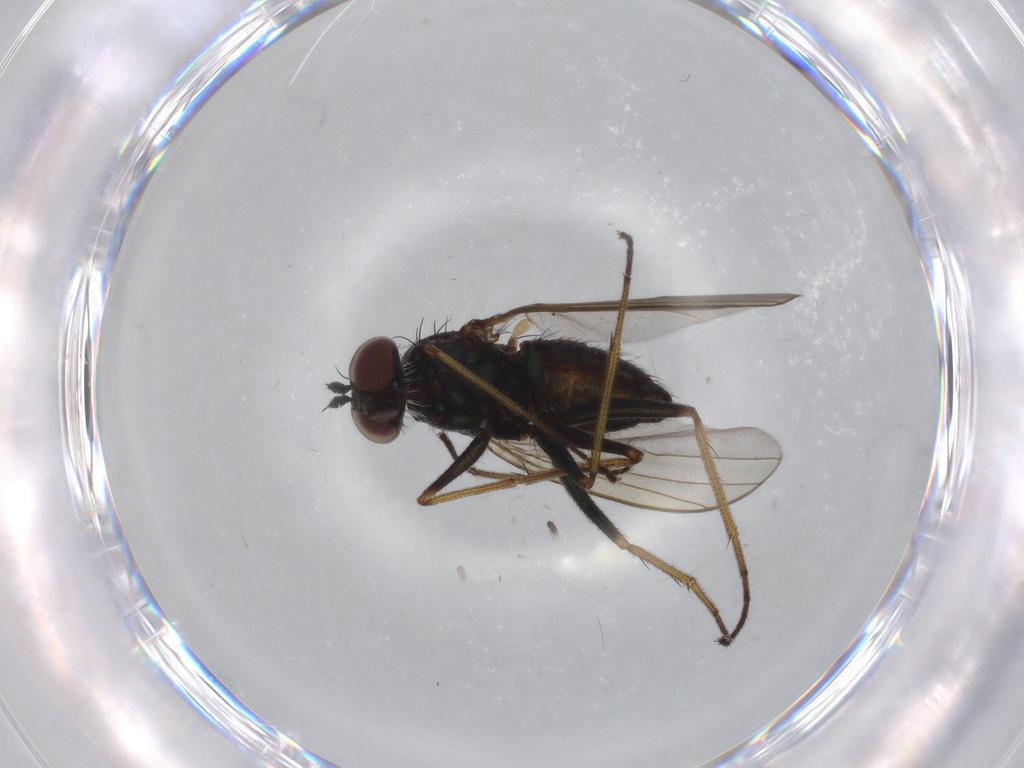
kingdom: Animalia
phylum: Arthropoda
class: Insecta
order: Diptera
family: Dolichopodidae
